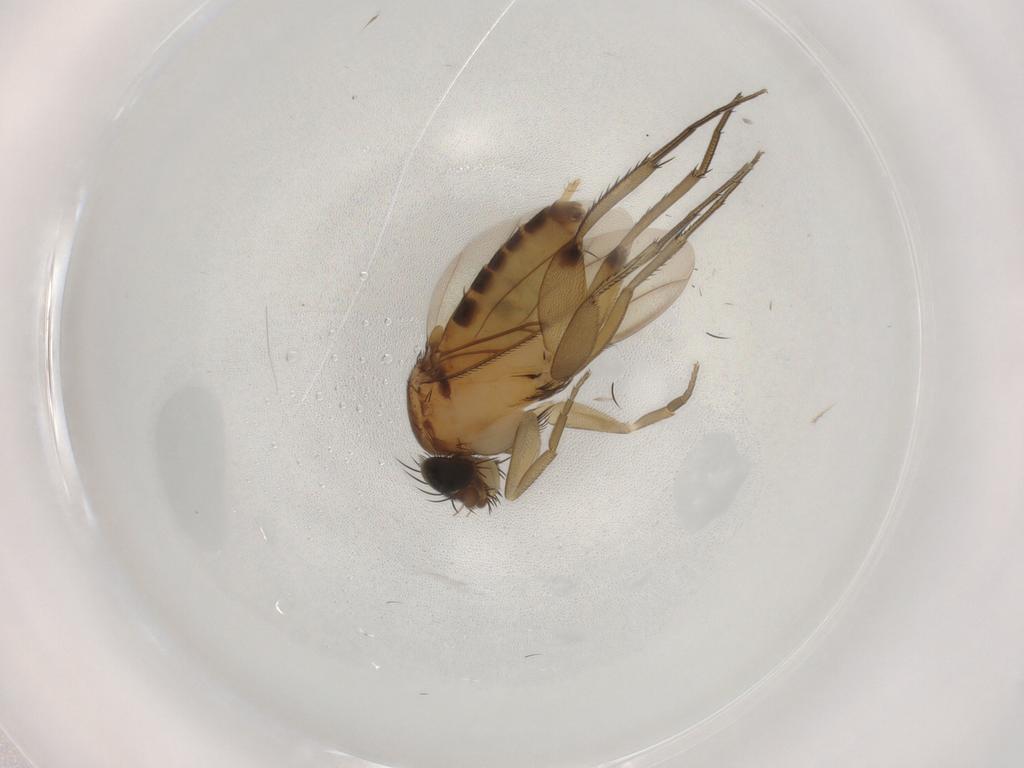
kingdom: Animalia
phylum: Arthropoda
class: Insecta
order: Diptera
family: Phoridae
